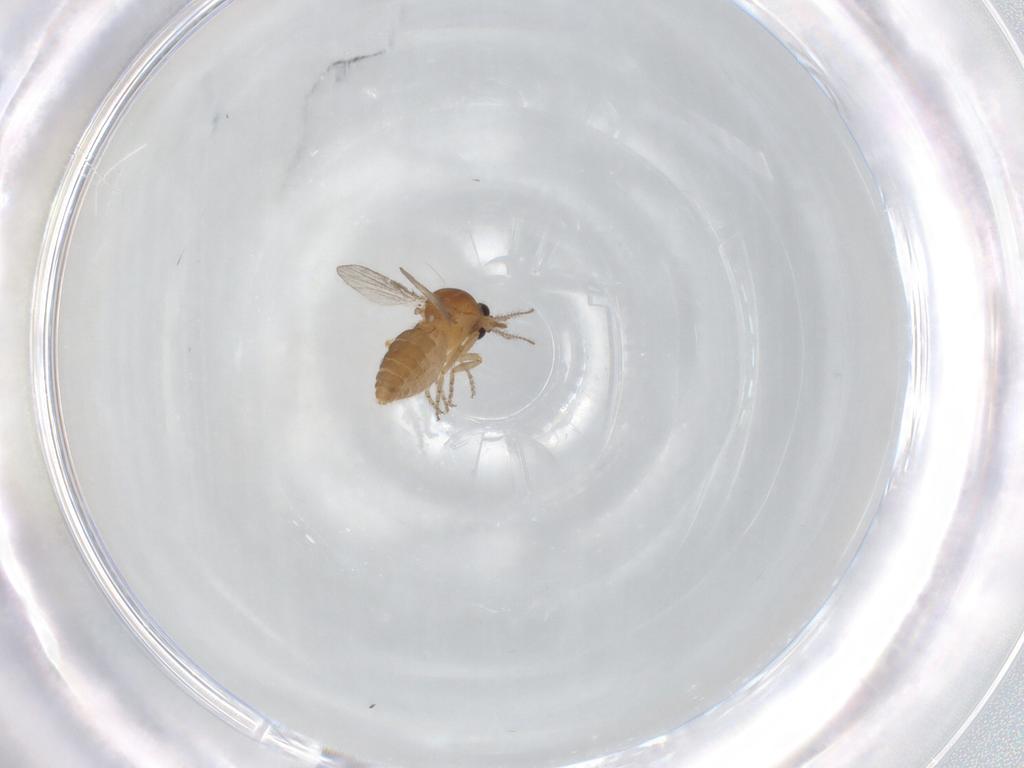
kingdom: Animalia
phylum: Arthropoda
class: Insecta
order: Diptera
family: Ceratopogonidae
